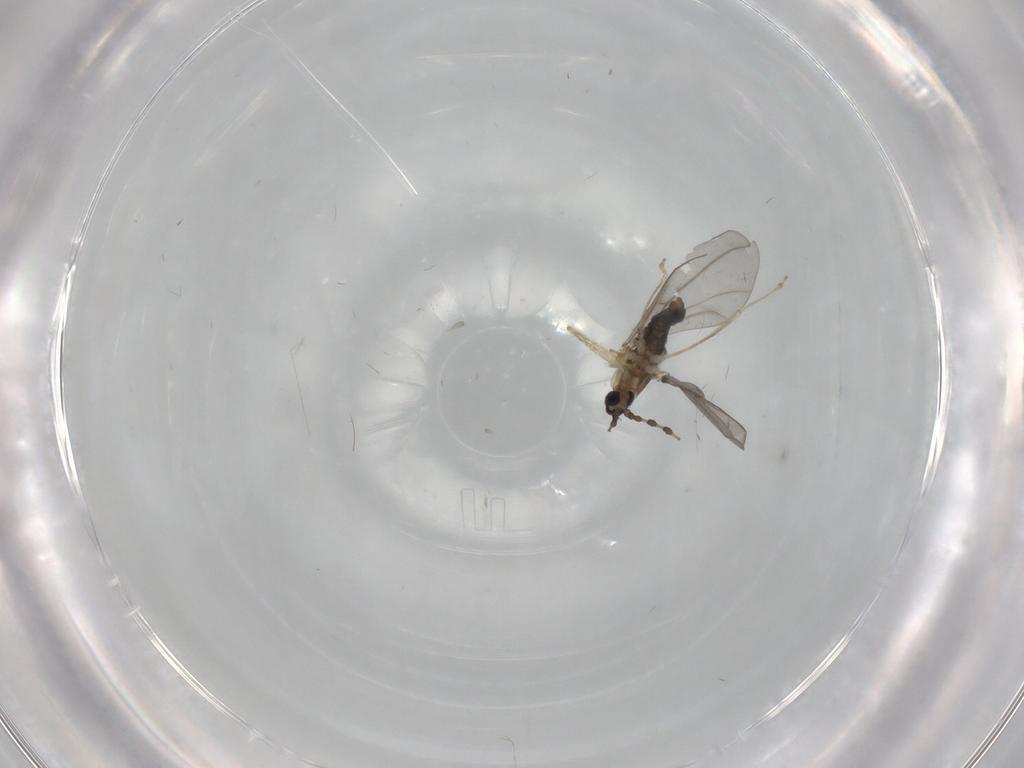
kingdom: Animalia
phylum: Arthropoda
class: Insecta
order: Diptera
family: Cecidomyiidae
